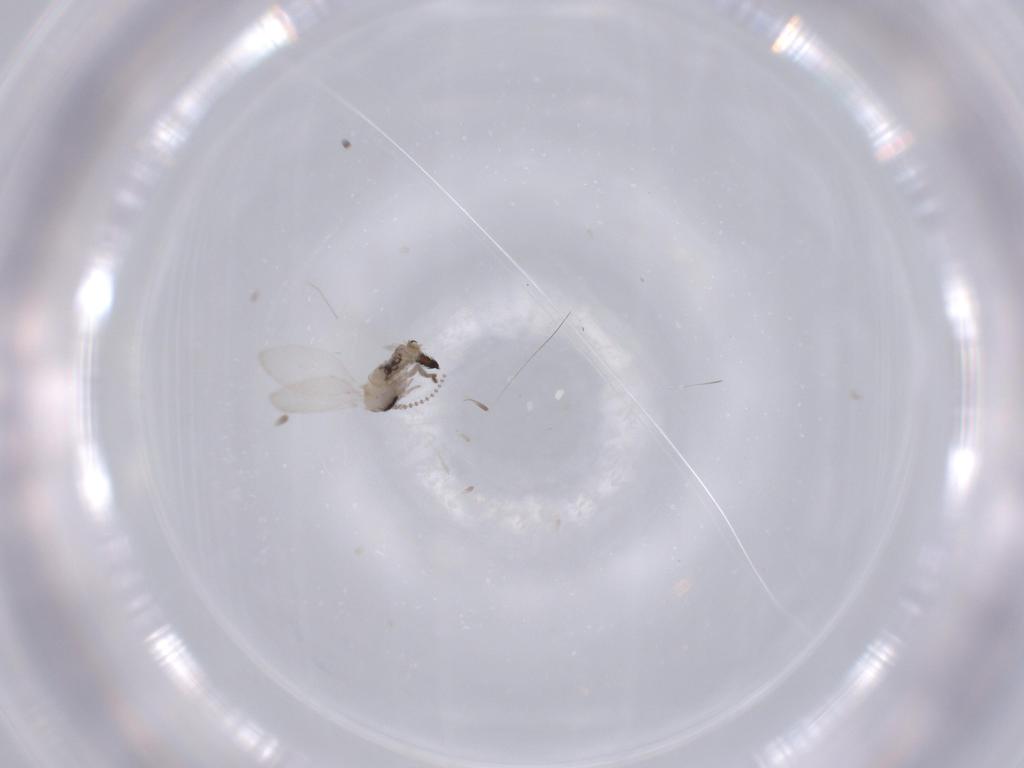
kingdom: Animalia
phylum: Arthropoda
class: Insecta
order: Diptera
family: Psychodidae
